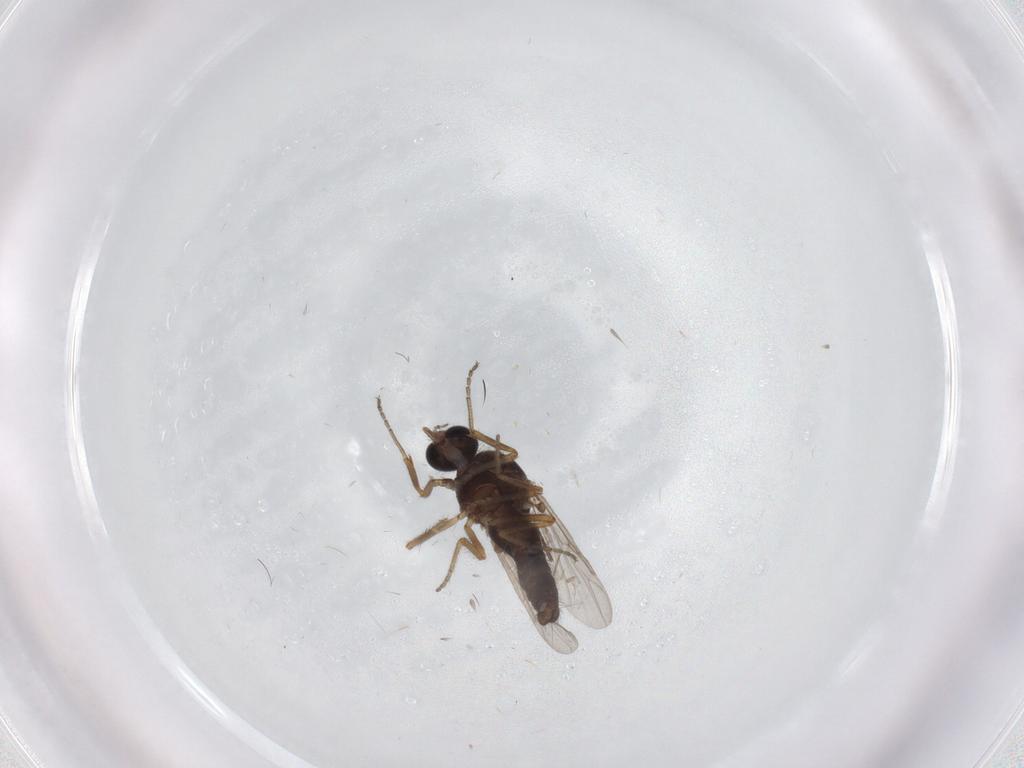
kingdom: Animalia
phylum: Arthropoda
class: Insecta
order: Diptera
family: Ceratopogonidae
